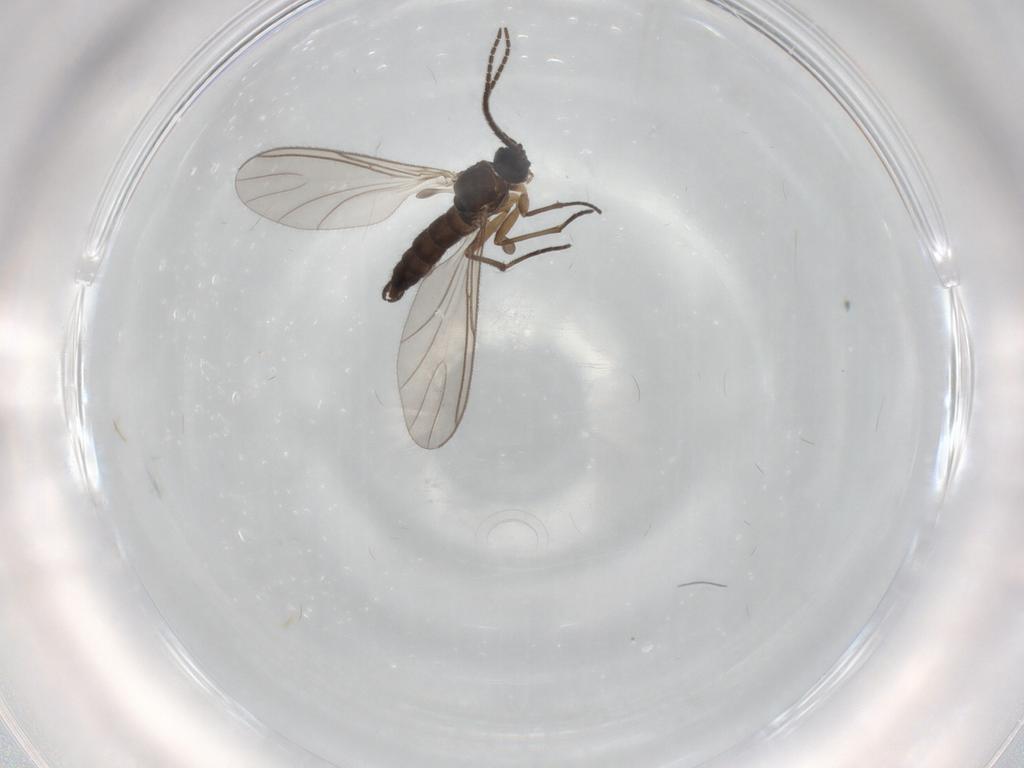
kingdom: Animalia
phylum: Arthropoda
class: Insecta
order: Diptera
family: Sciaridae
